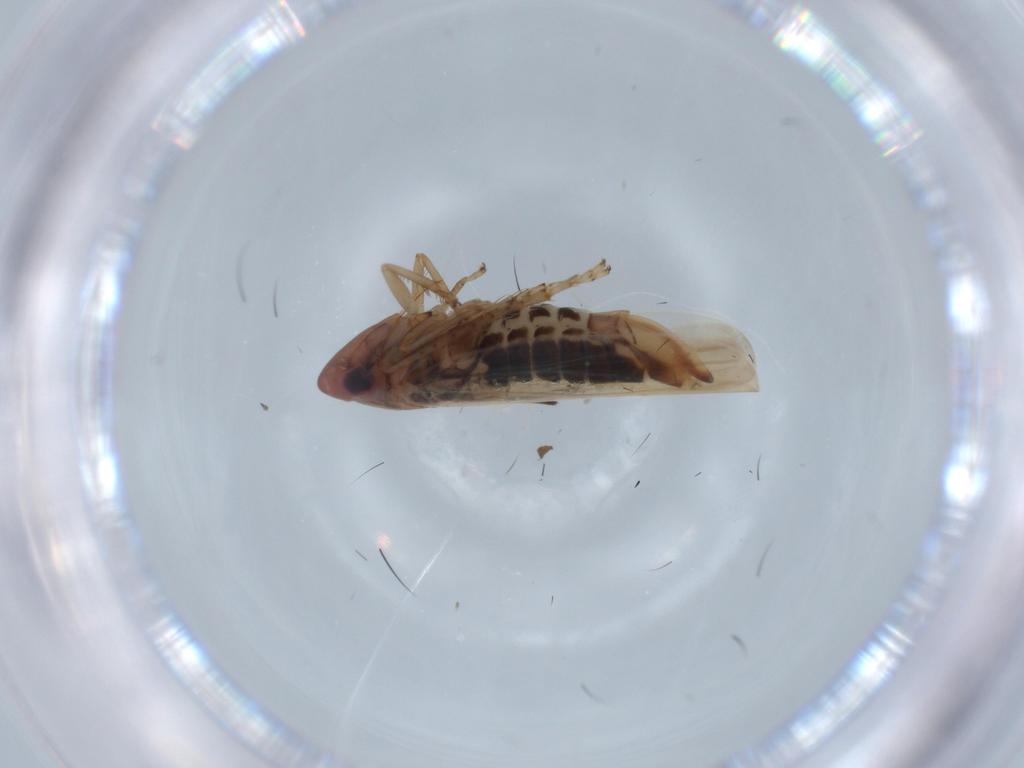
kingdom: Animalia
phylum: Arthropoda
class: Insecta
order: Hemiptera
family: Cicadellidae
